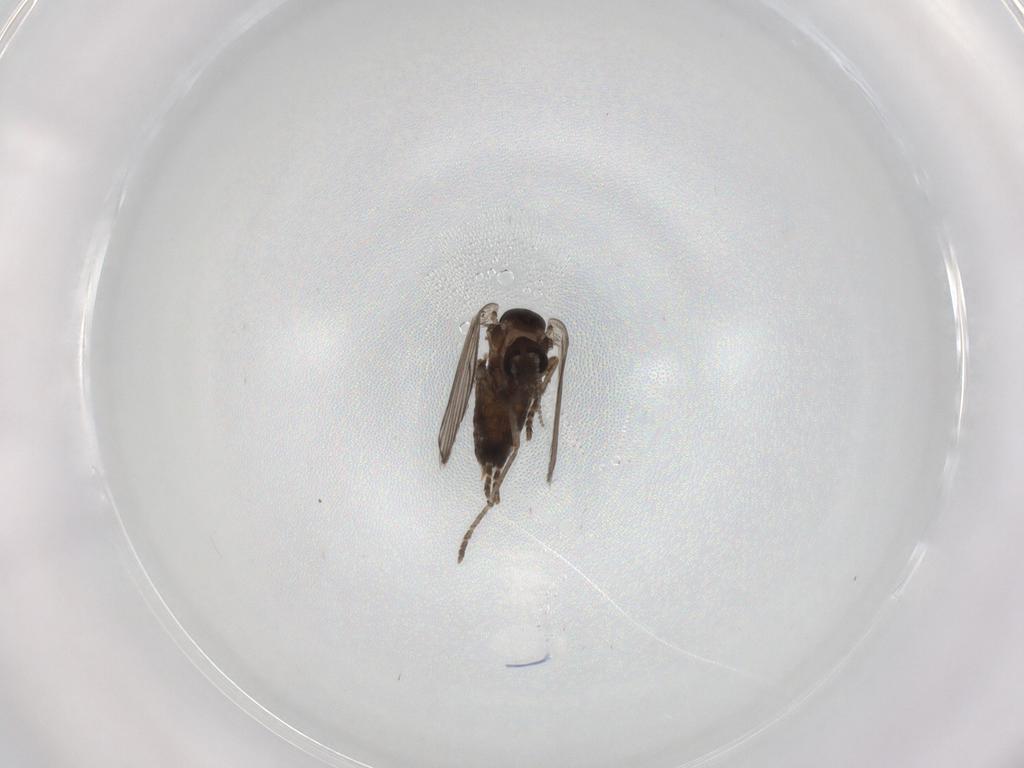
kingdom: Animalia
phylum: Arthropoda
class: Insecta
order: Diptera
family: Psychodidae
